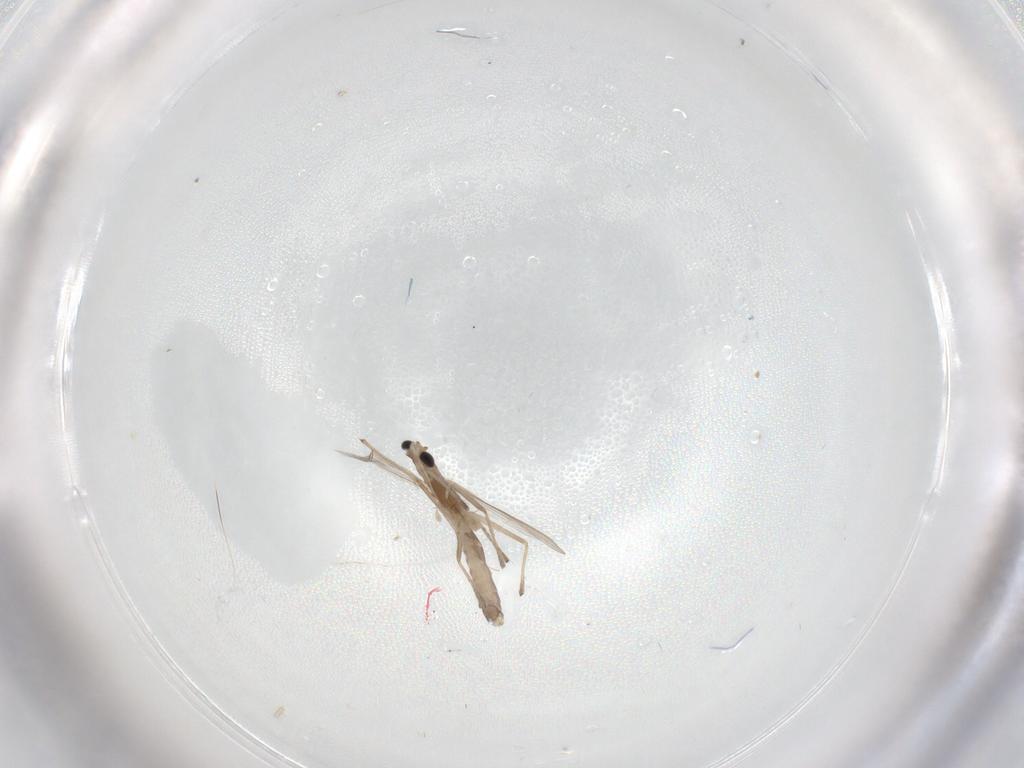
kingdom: Animalia
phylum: Arthropoda
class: Insecta
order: Diptera
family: Chironomidae
